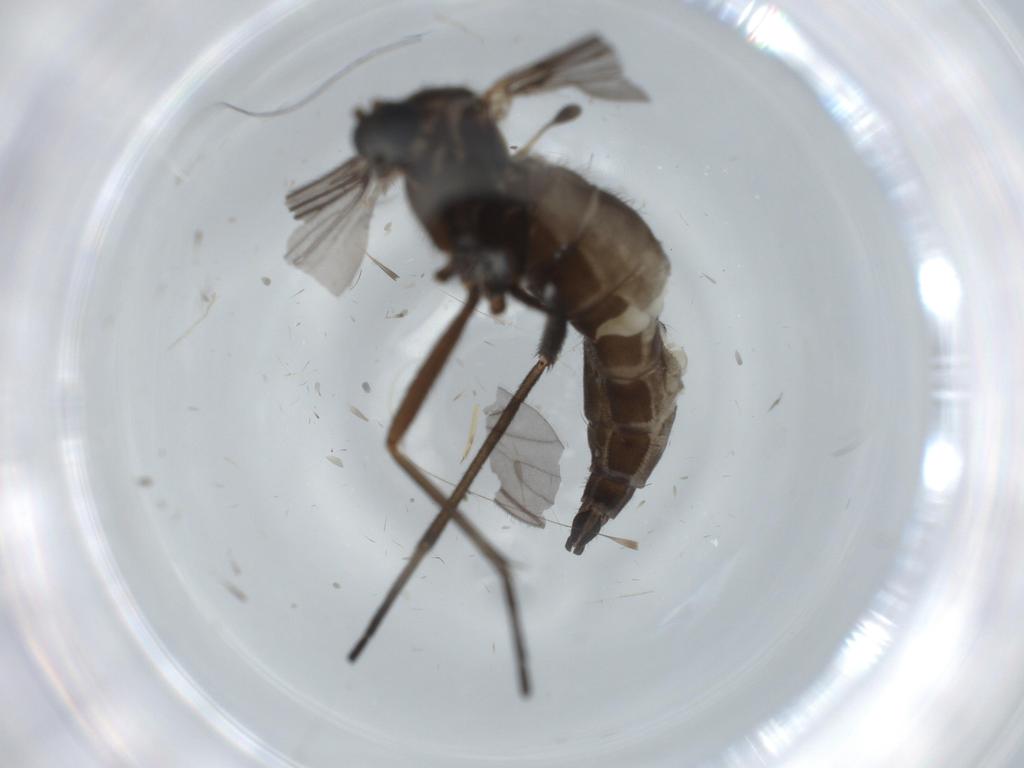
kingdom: Animalia
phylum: Arthropoda
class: Insecta
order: Diptera
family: Sciaridae
